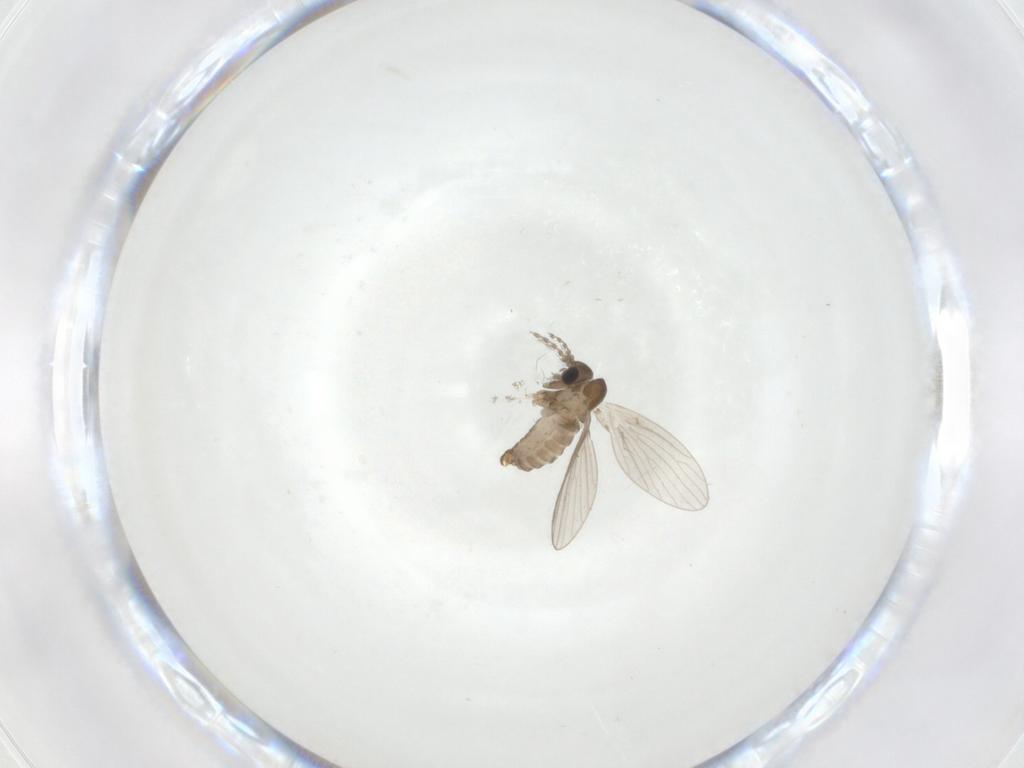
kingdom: Animalia
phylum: Arthropoda
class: Insecta
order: Diptera
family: Psychodidae
